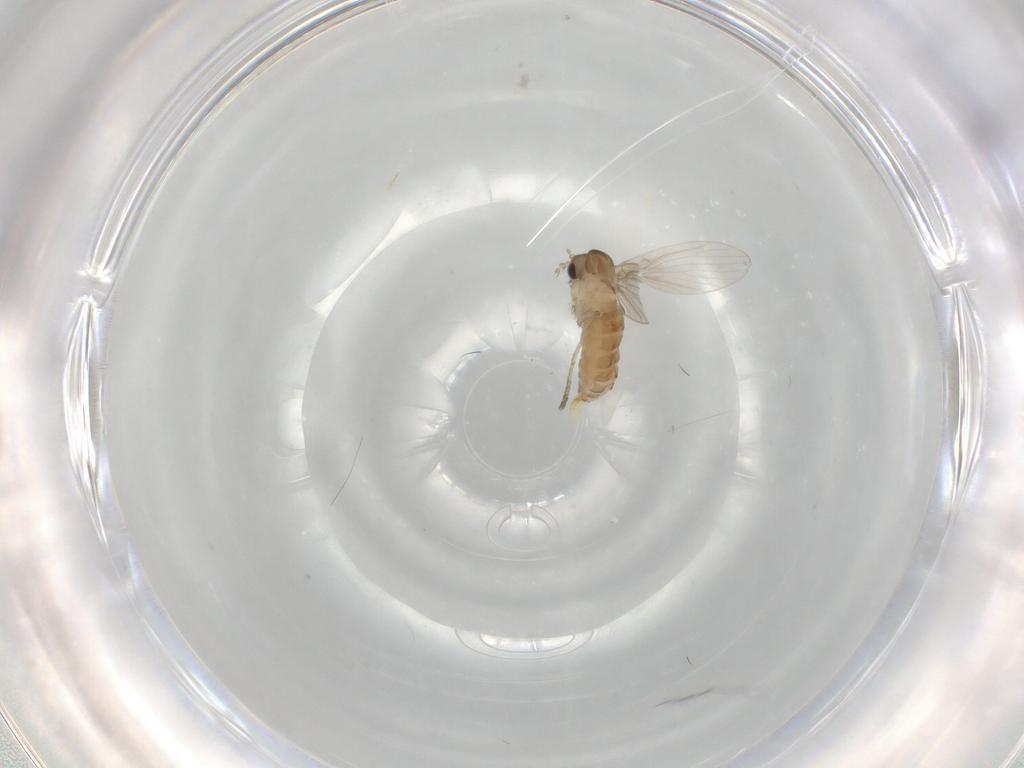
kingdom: Animalia
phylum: Arthropoda
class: Insecta
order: Diptera
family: Psychodidae
